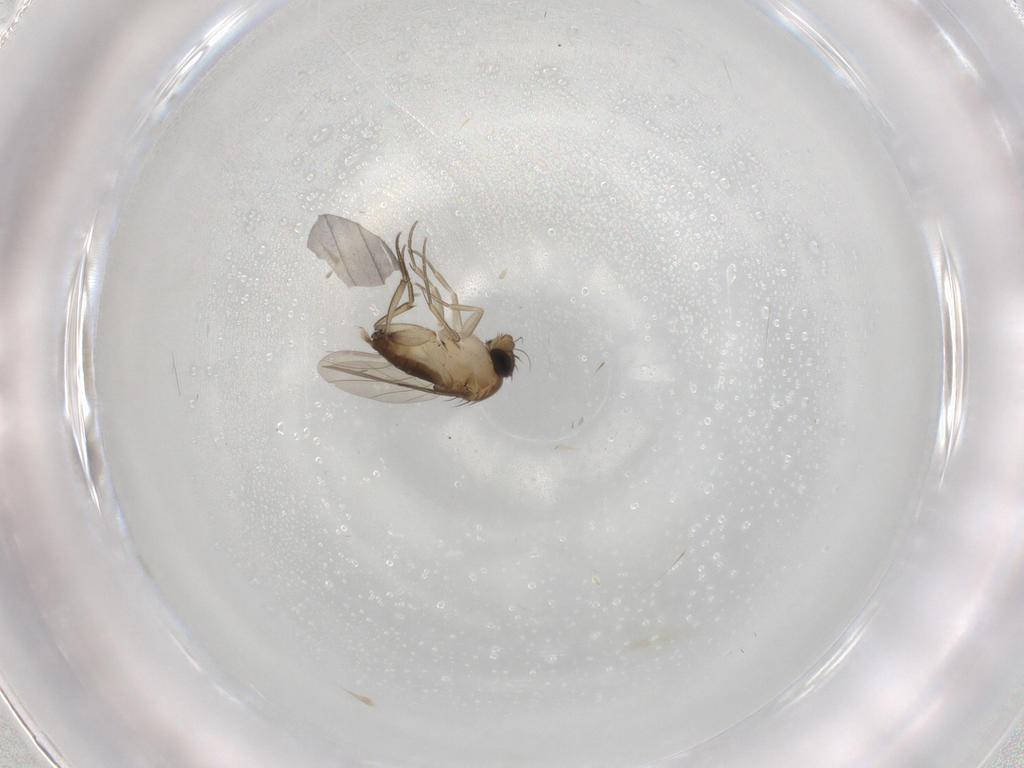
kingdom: Animalia
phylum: Arthropoda
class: Insecta
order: Diptera
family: Phoridae
